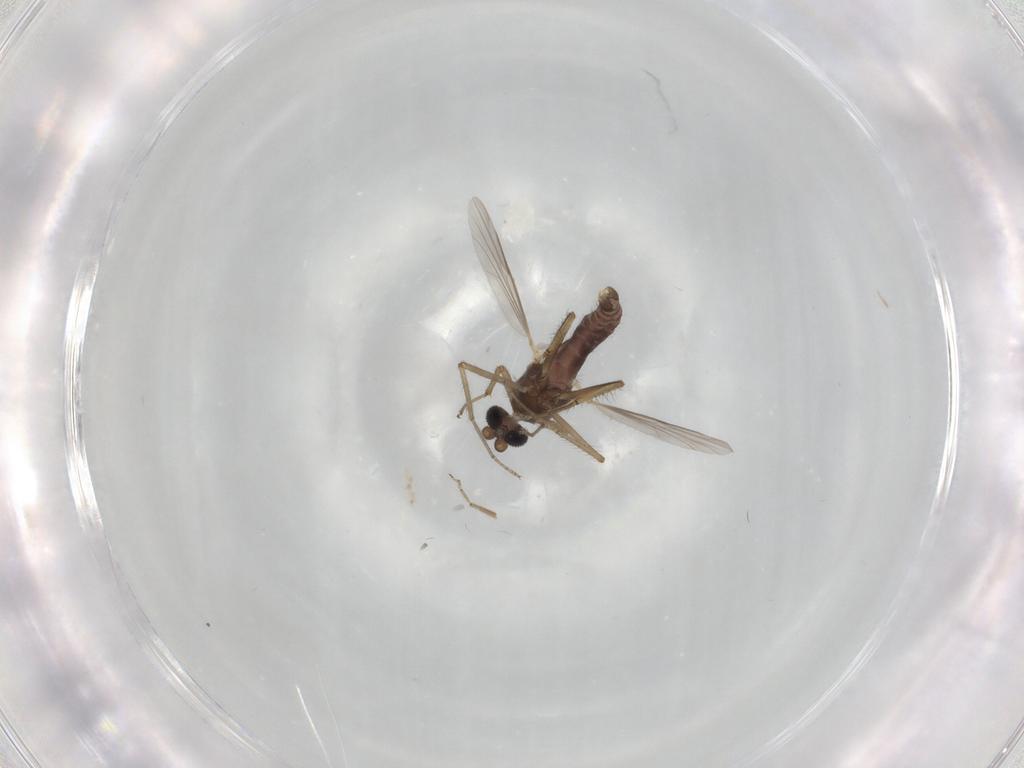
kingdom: Animalia
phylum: Arthropoda
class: Insecta
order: Diptera
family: Ceratopogonidae
